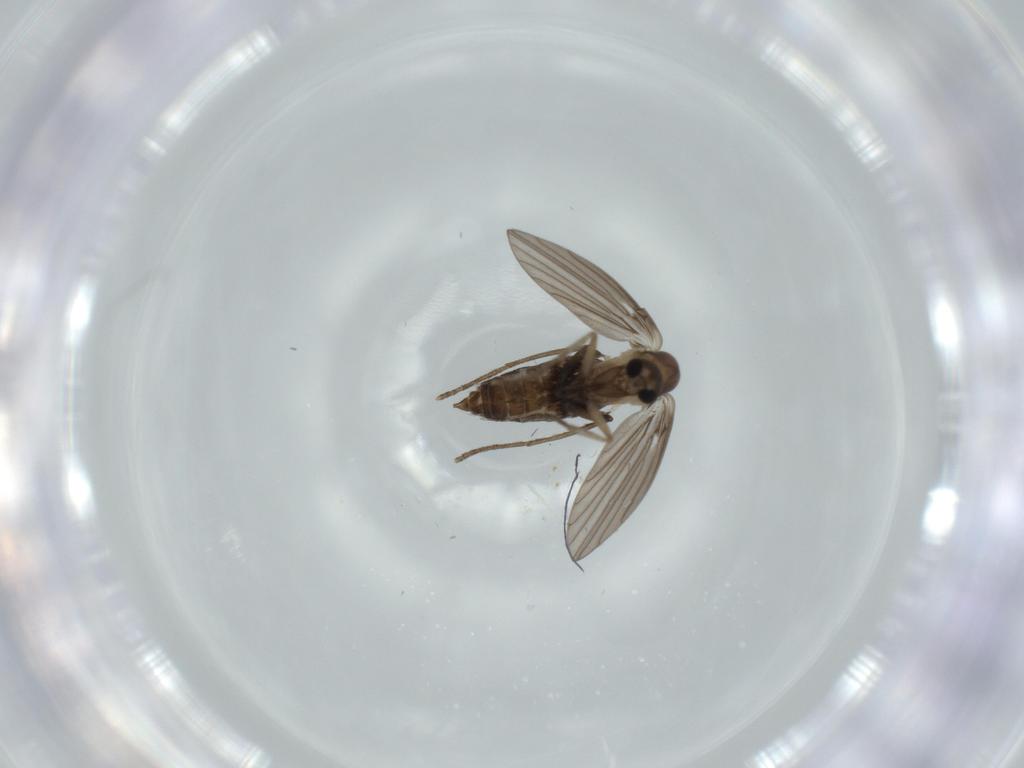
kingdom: Animalia
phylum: Arthropoda
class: Insecta
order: Diptera
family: Psychodidae
